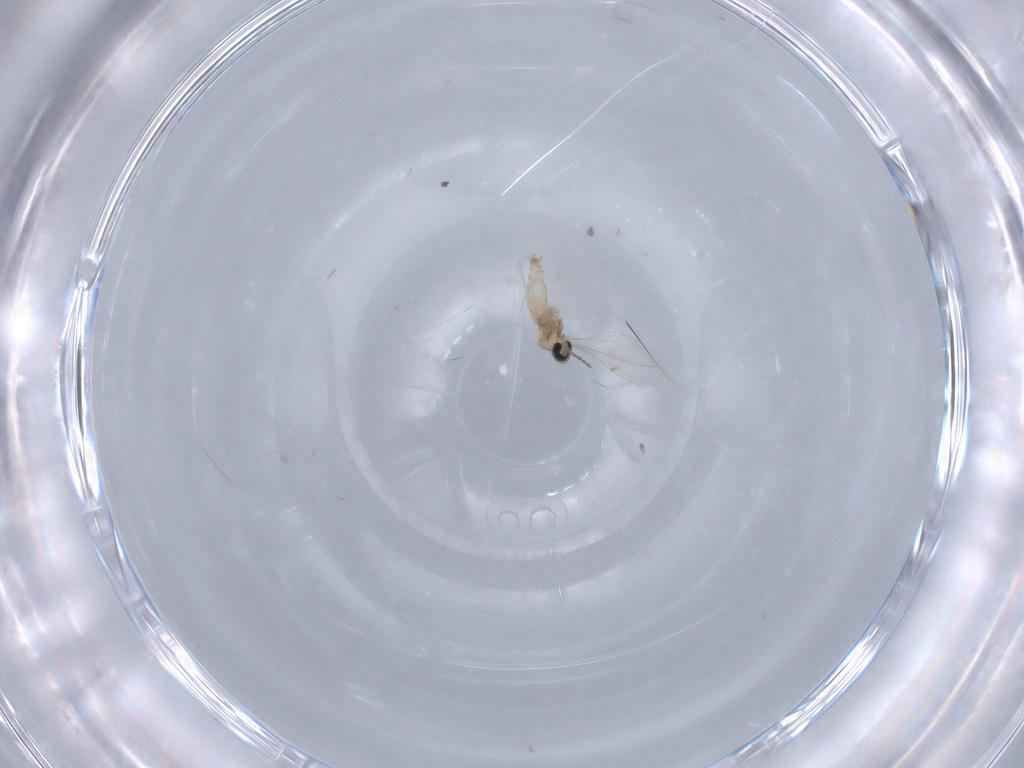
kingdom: Animalia
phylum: Arthropoda
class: Insecta
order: Diptera
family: Cecidomyiidae
